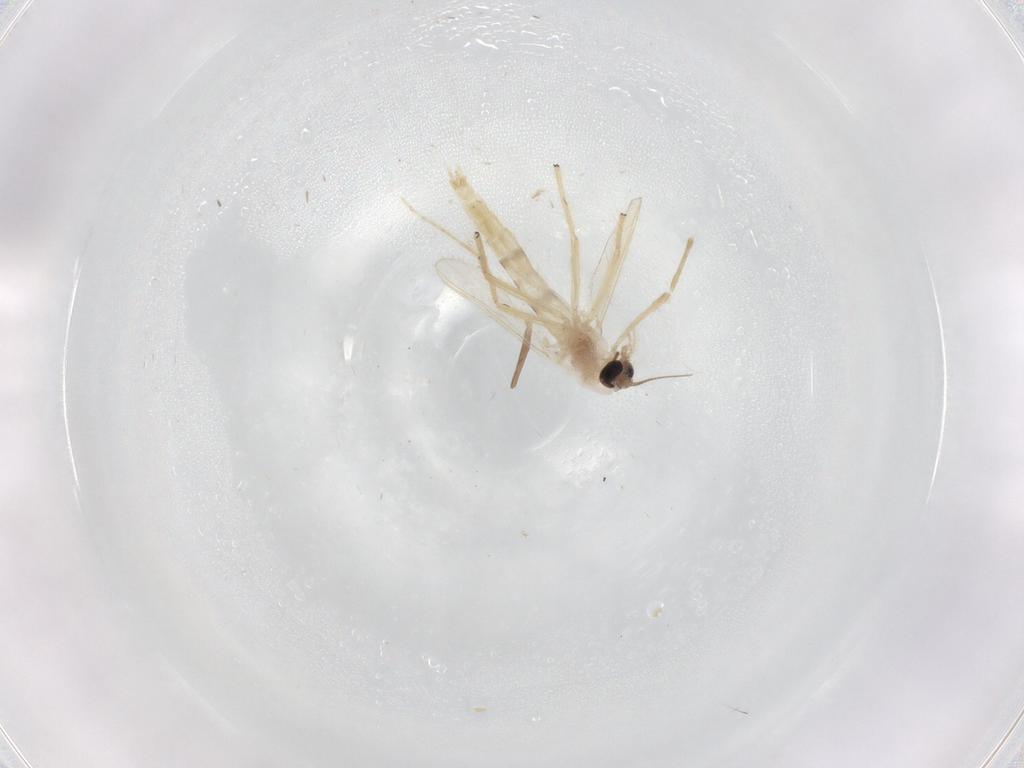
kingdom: Animalia
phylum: Arthropoda
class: Insecta
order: Diptera
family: Chironomidae
